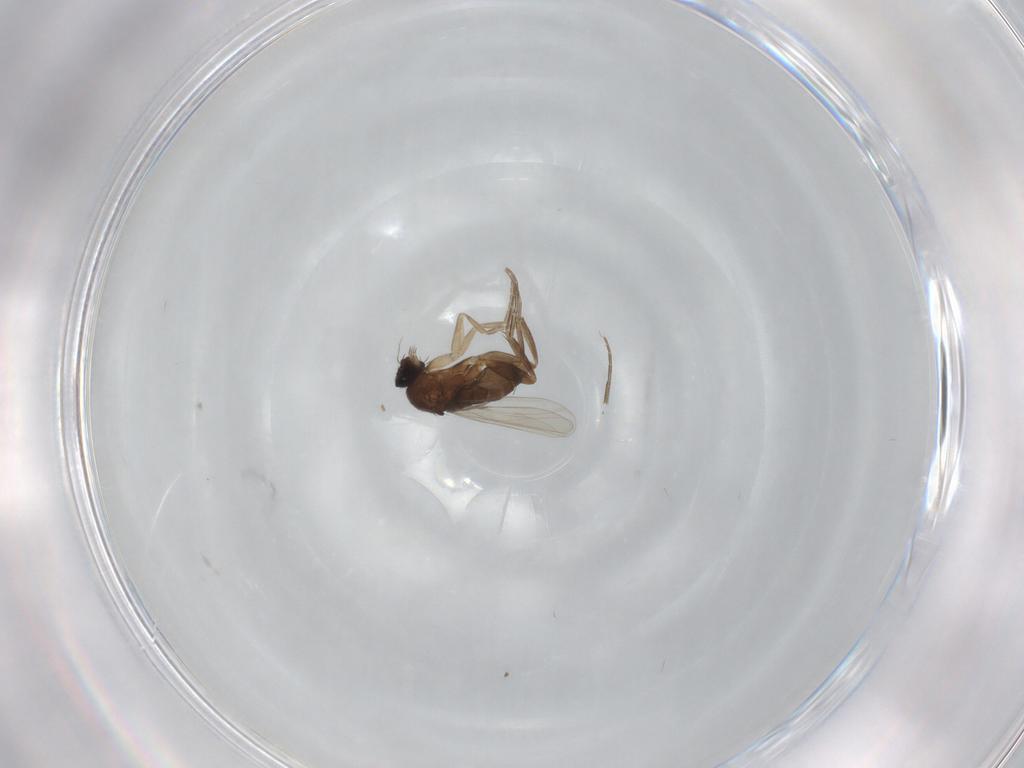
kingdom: Animalia
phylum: Arthropoda
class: Insecta
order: Diptera
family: Phoridae
